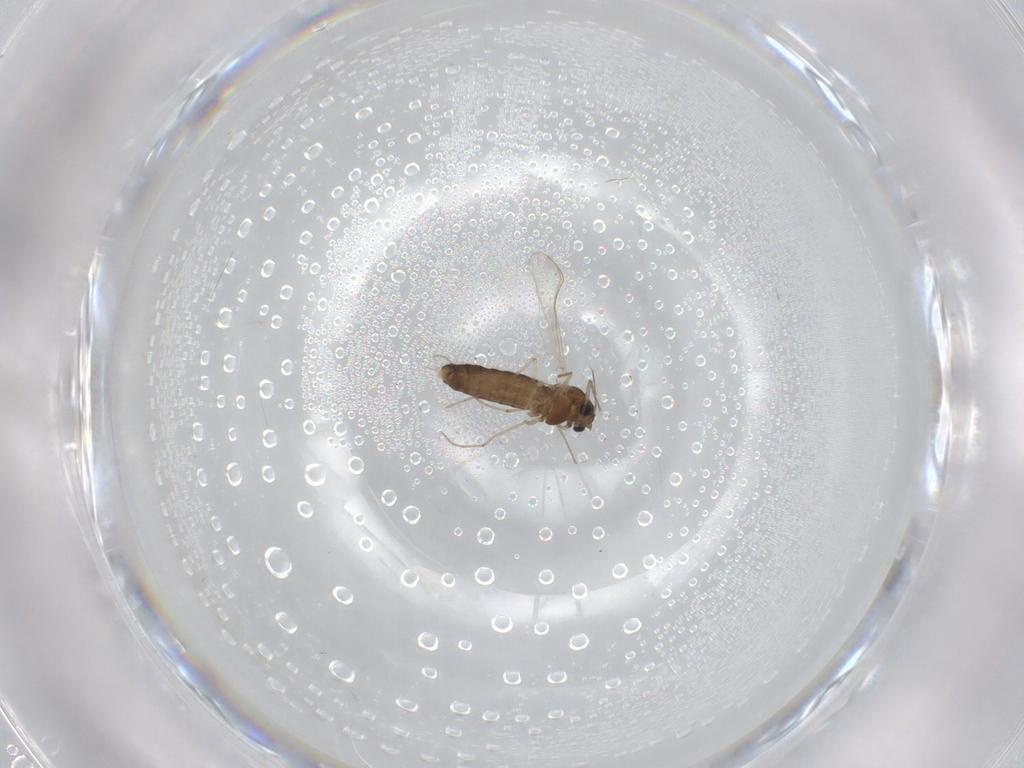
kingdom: Animalia
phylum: Arthropoda
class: Insecta
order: Diptera
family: Chironomidae
